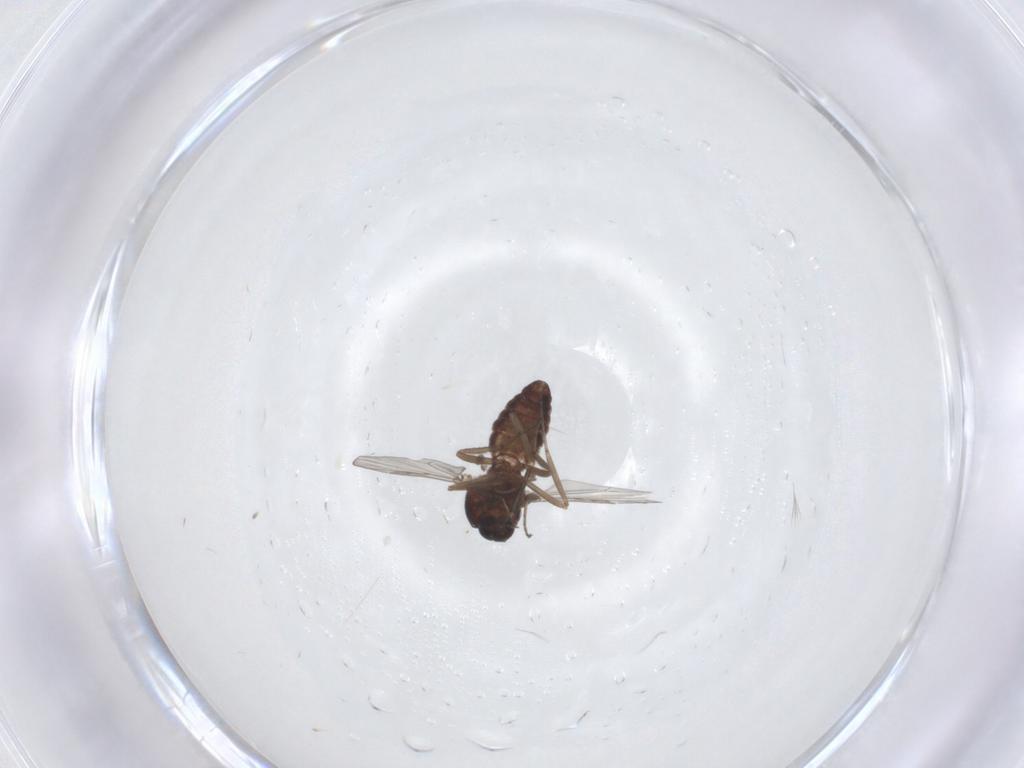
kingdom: Animalia
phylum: Arthropoda
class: Insecta
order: Diptera
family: Ceratopogonidae
